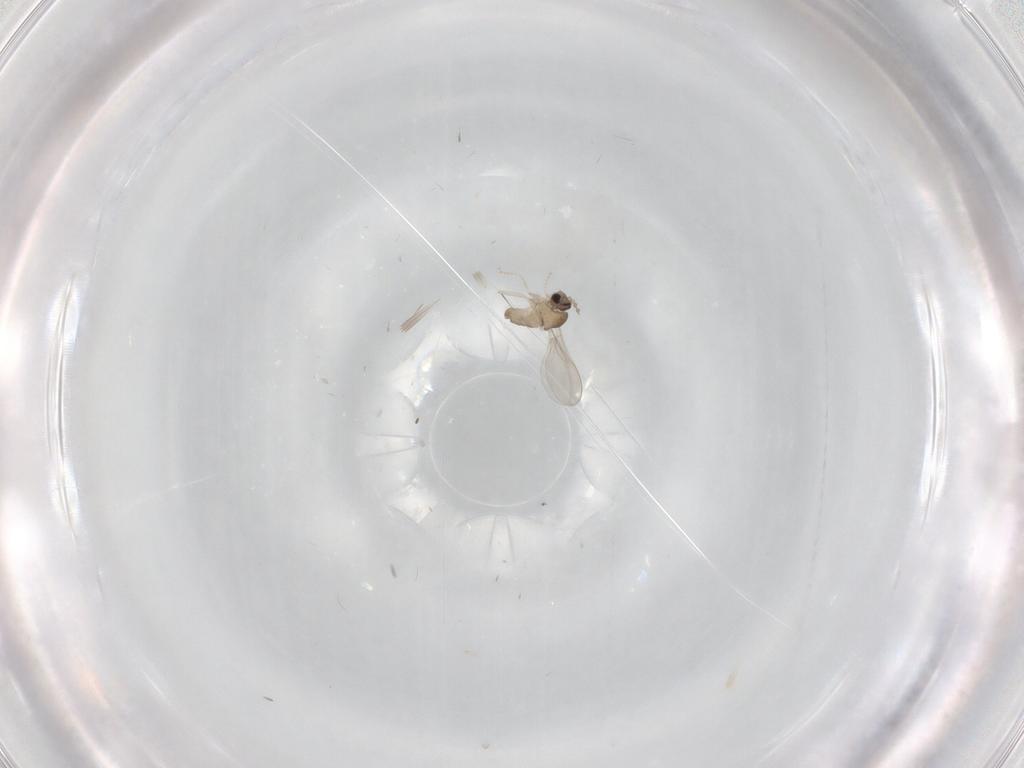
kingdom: Animalia
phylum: Arthropoda
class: Insecta
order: Diptera
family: Cecidomyiidae
